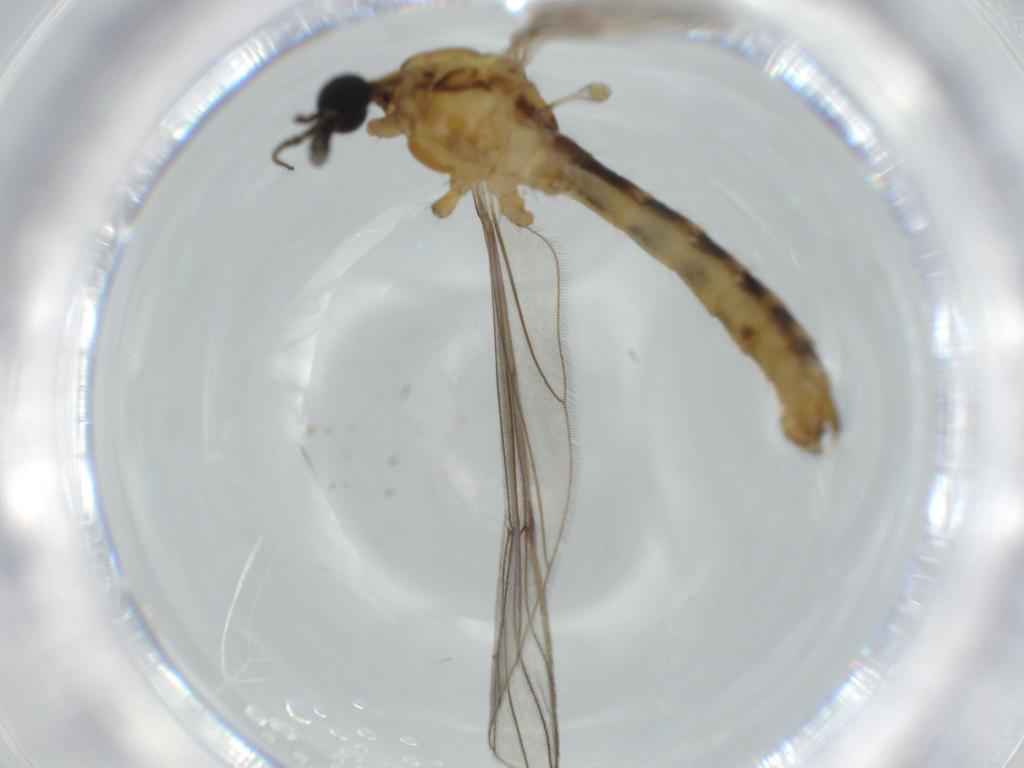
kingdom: Animalia
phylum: Arthropoda
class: Insecta
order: Diptera
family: Phoridae
